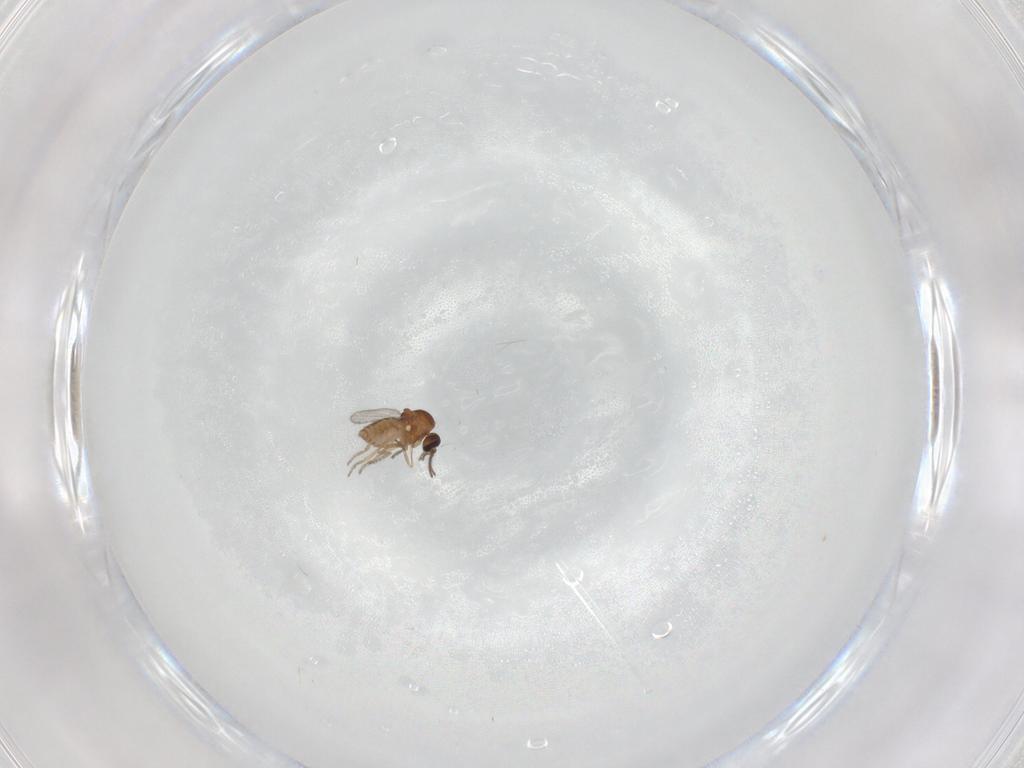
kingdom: Animalia
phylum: Arthropoda
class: Insecta
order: Diptera
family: Ceratopogonidae
